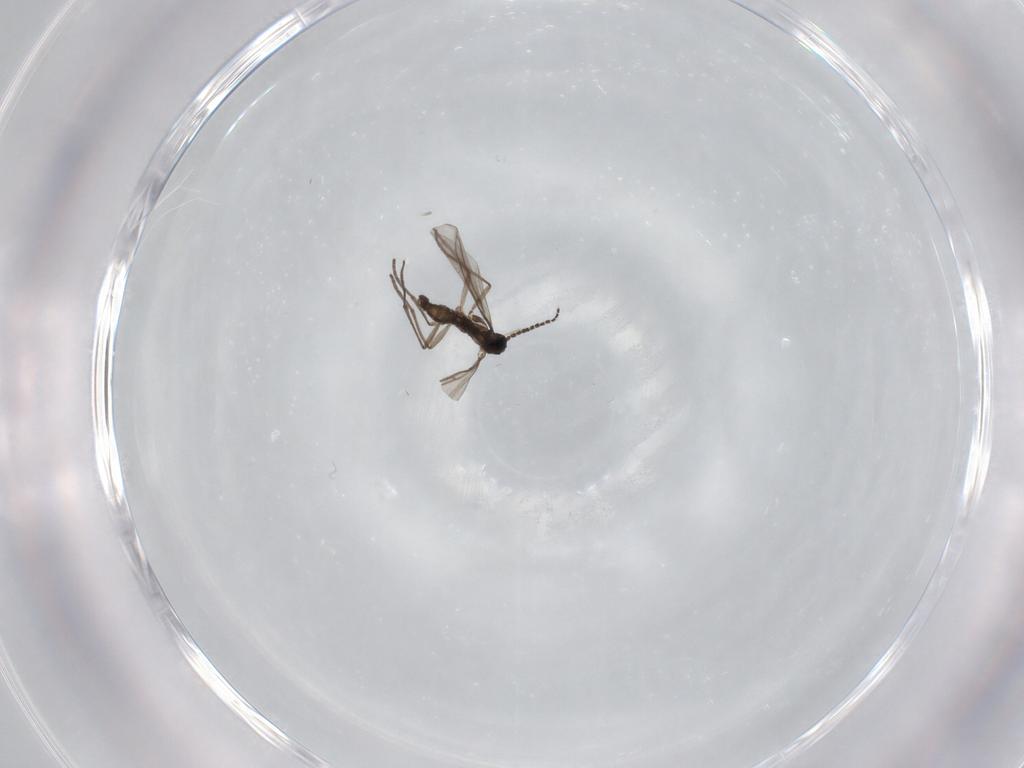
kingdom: Animalia
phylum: Arthropoda
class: Insecta
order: Diptera
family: Sciaridae
